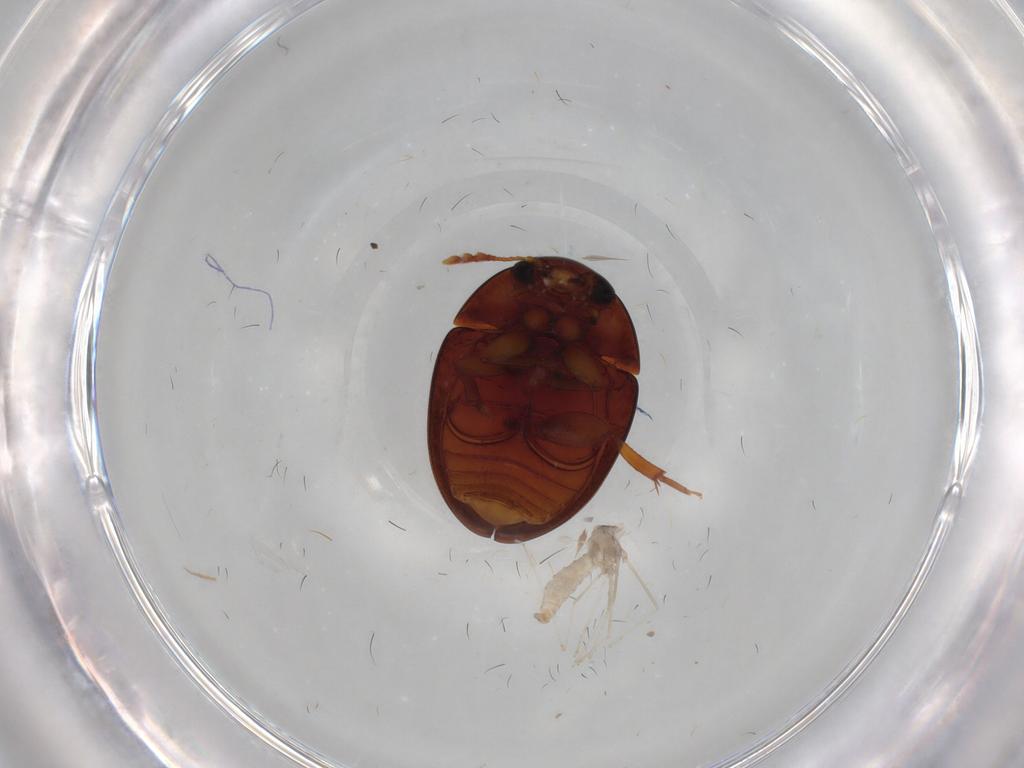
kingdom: Animalia
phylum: Arthropoda
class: Insecta
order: Coleoptera
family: Phalacridae
